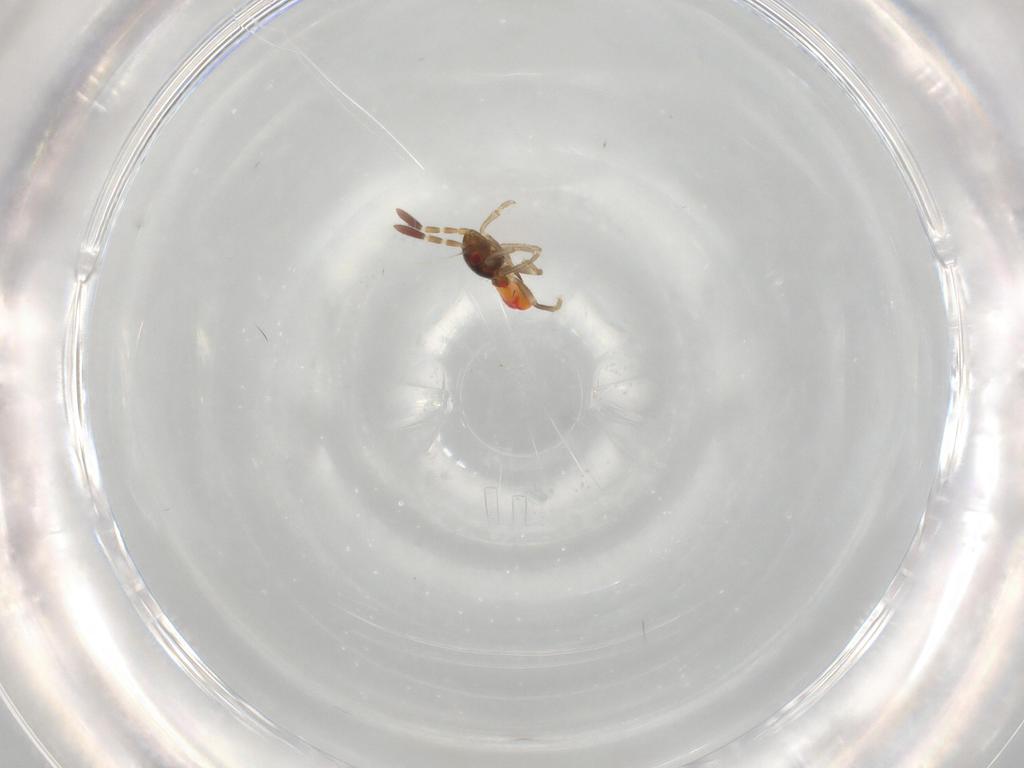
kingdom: Animalia
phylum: Arthropoda
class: Insecta
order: Hemiptera
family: Rhyparochromidae
